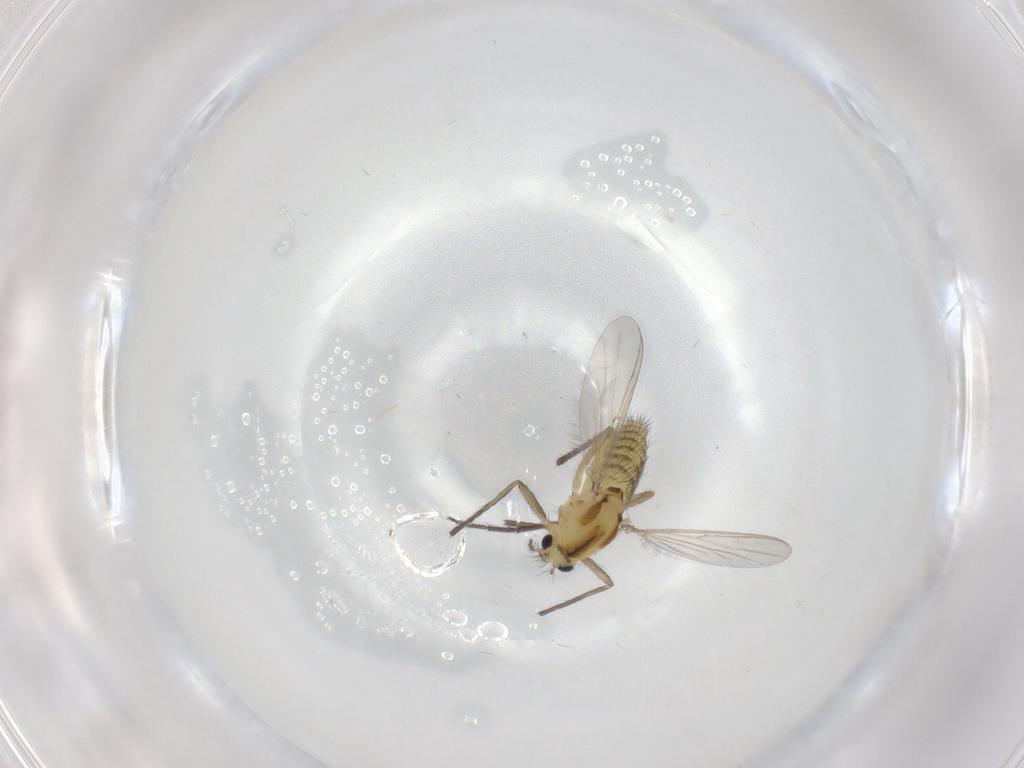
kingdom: Animalia
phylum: Arthropoda
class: Insecta
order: Diptera
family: Chironomidae
